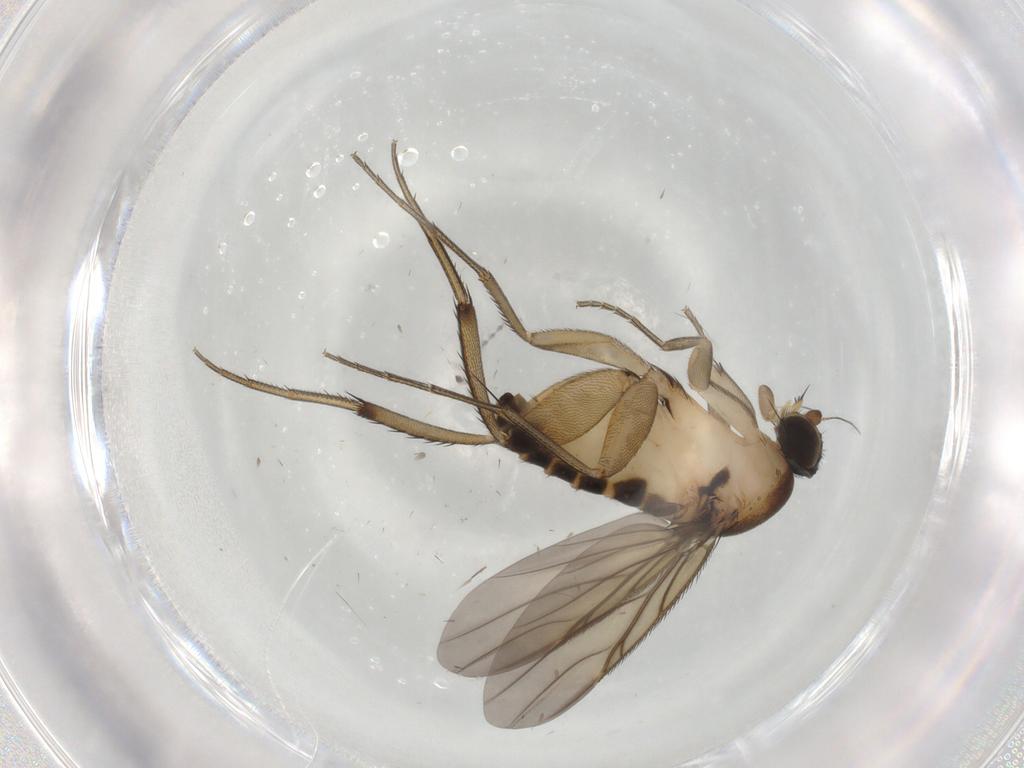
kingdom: Animalia
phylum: Arthropoda
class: Insecta
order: Diptera
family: Phoridae
